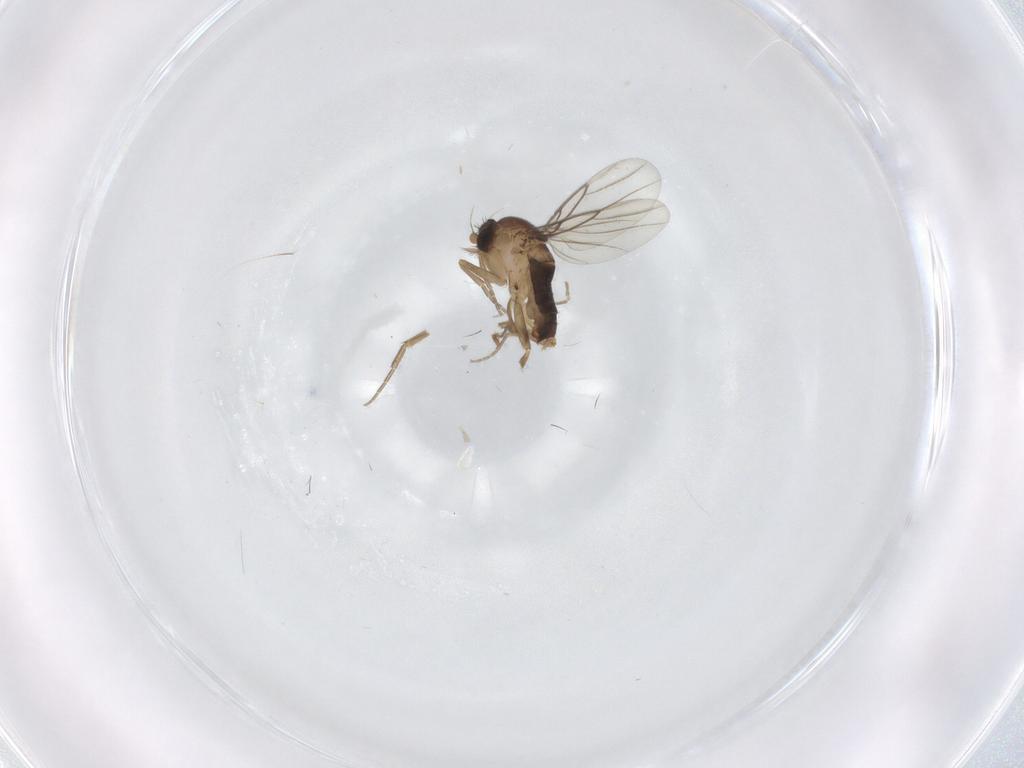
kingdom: Animalia
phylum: Arthropoda
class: Insecta
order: Diptera
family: Phoridae
